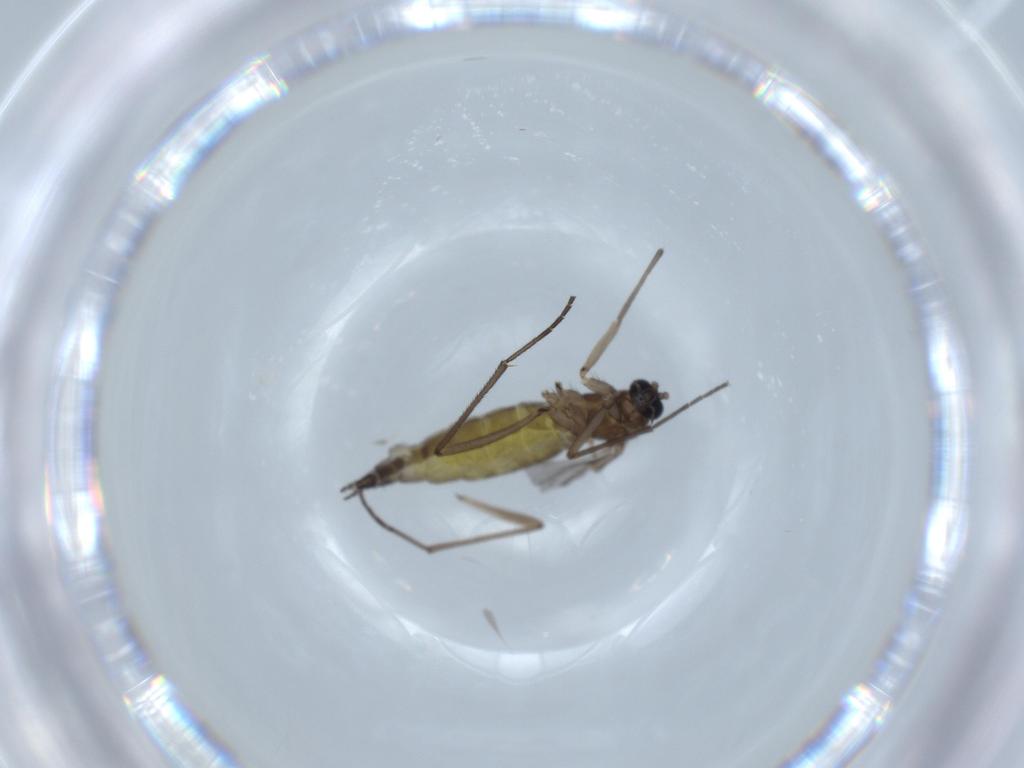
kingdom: Animalia
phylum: Arthropoda
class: Insecta
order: Diptera
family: Sciaridae
